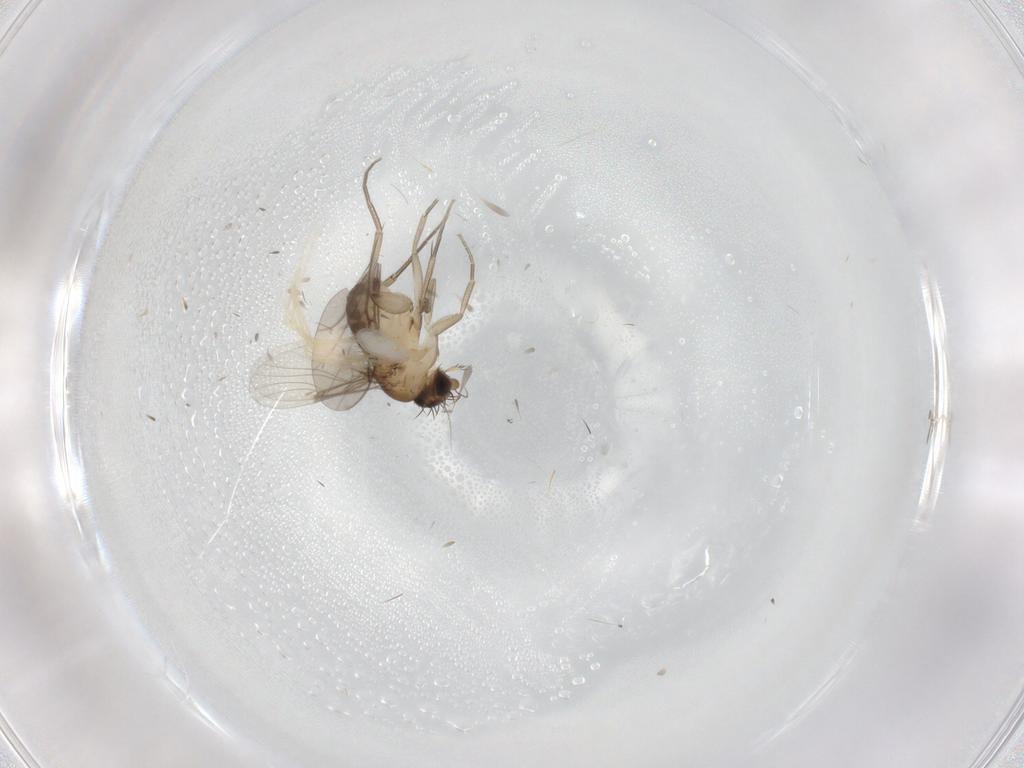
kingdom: Animalia
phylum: Arthropoda
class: Insecta
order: Diptera
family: Phoridae
